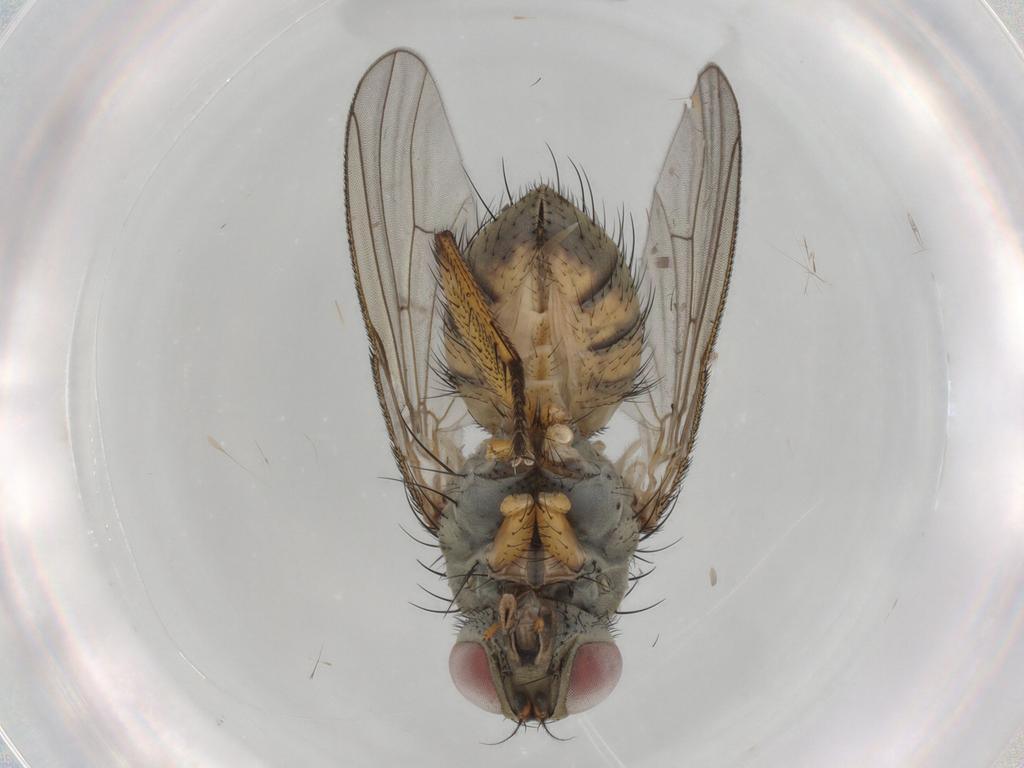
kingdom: Animalia
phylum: Arthropoda
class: Insecta
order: Diptera
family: Muscidae
